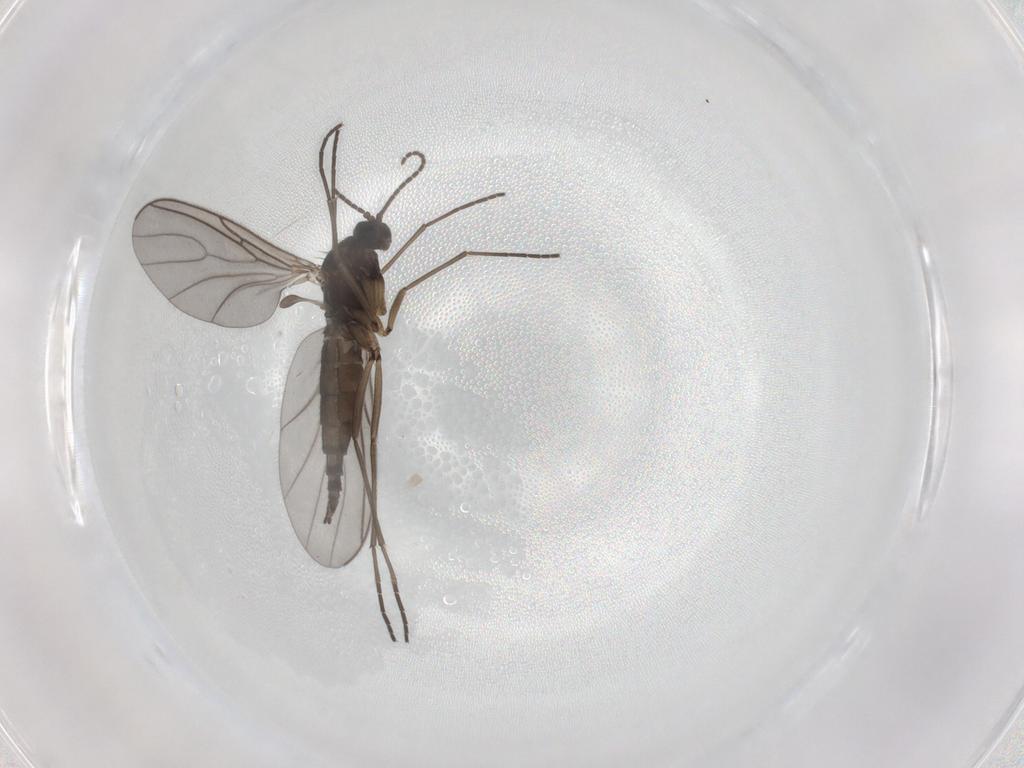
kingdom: Animalia
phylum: Arthropoda
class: Insecta
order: Diptera
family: Sciaridae
